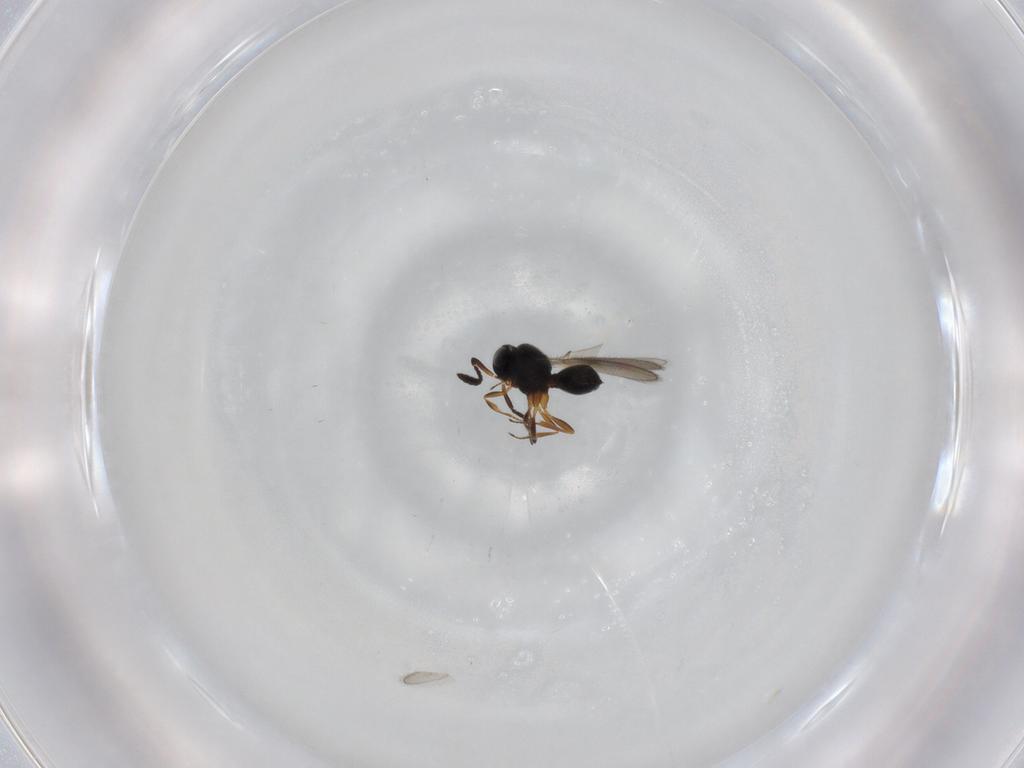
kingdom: Animalia
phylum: Arthropoda
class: Insecta
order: Hymenoptera
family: Scelionidae
